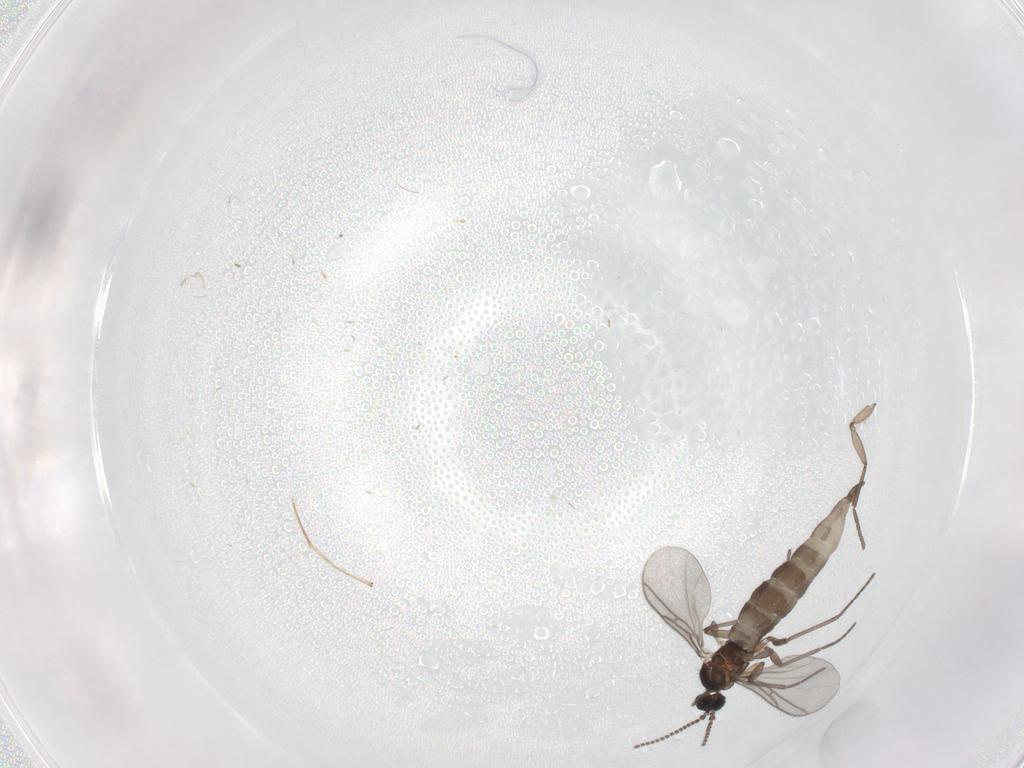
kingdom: Animalia
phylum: Arthropoda
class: Insecta
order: Diptera
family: Chironomidae
